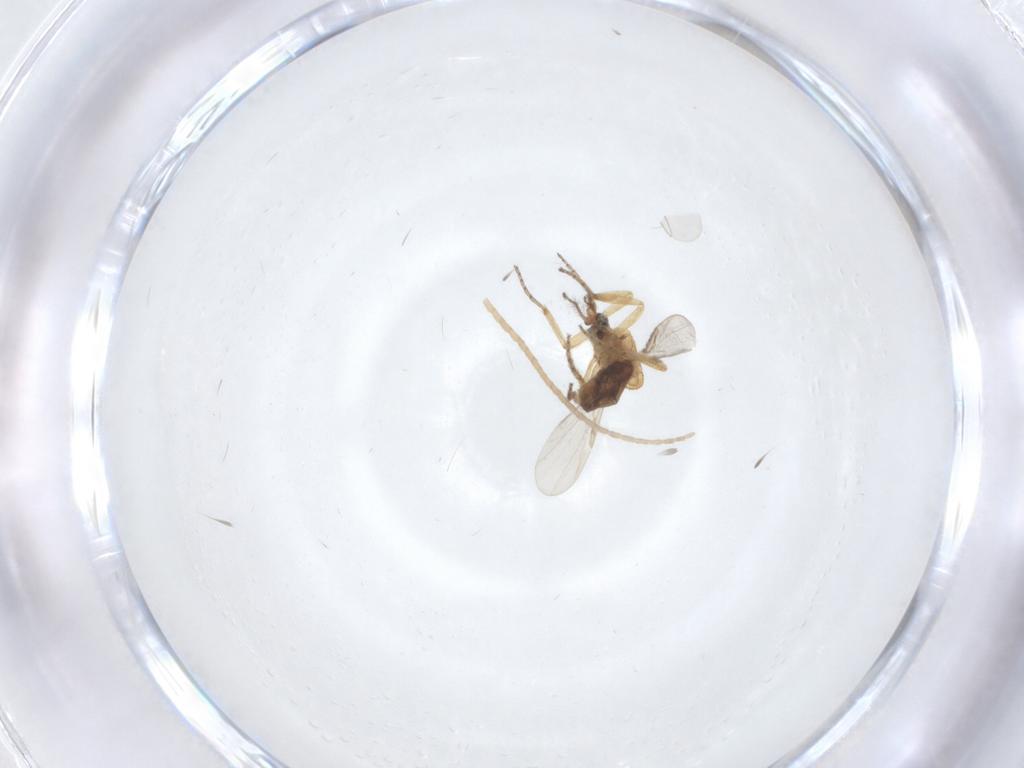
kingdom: Animalia
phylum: Arthropoda
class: Insecta
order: Diptera
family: Ceratopogonidae
